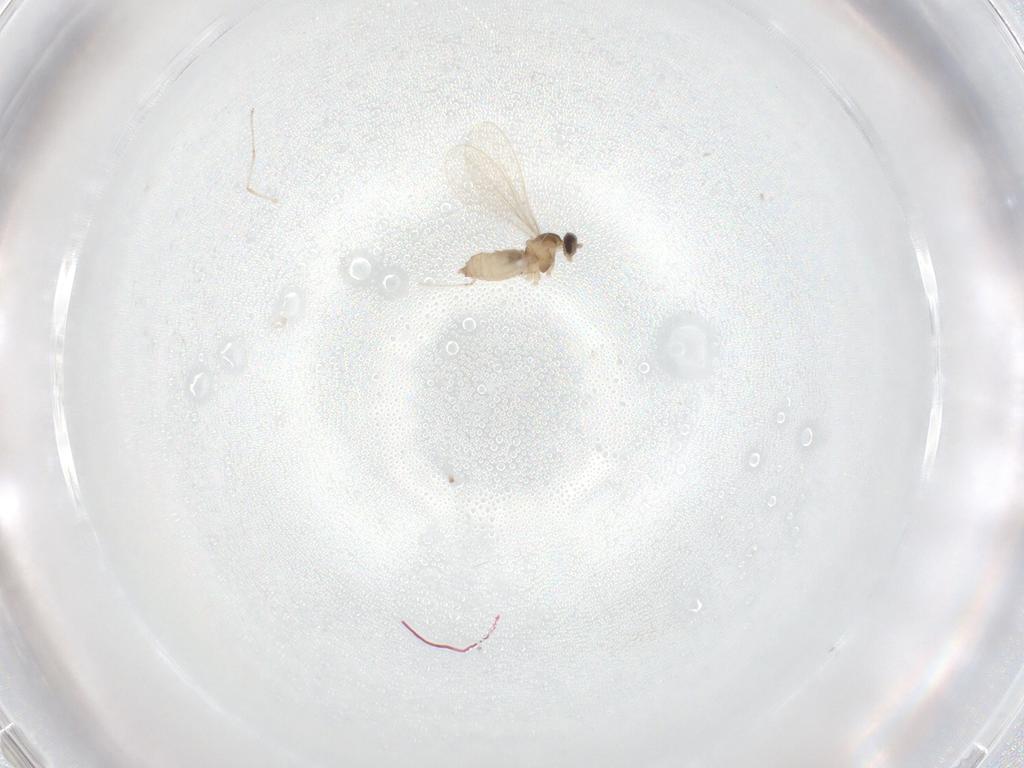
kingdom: Animalia
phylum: Arthropoda
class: Insecta
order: Diptera
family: Cecidomyiidae
